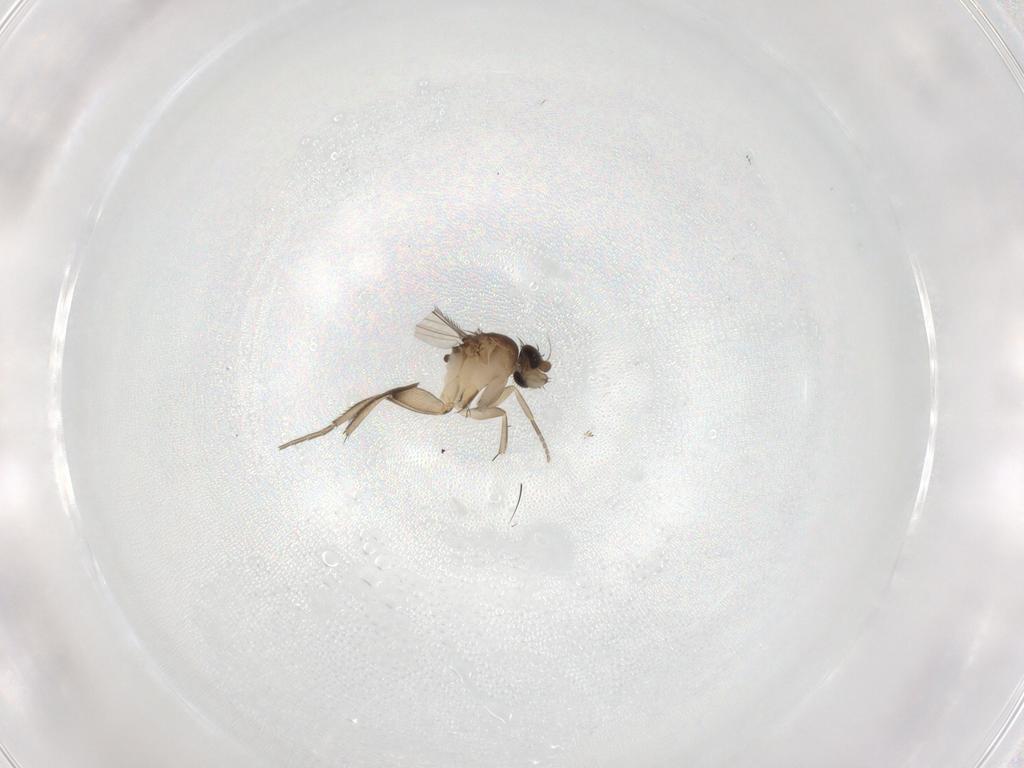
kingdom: Animalia
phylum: Arthropoda
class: Insecta
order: Diptera
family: Phoridae
